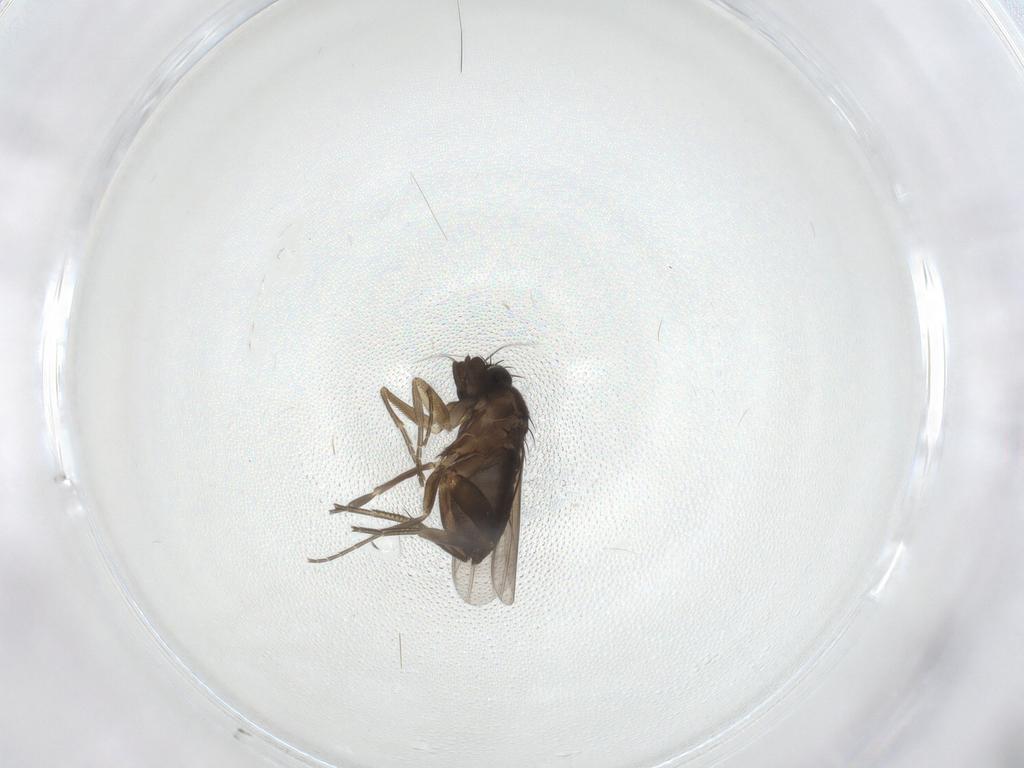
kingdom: Animalia
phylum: Arthropoda
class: Insecta
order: Diptera
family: Phoridae
